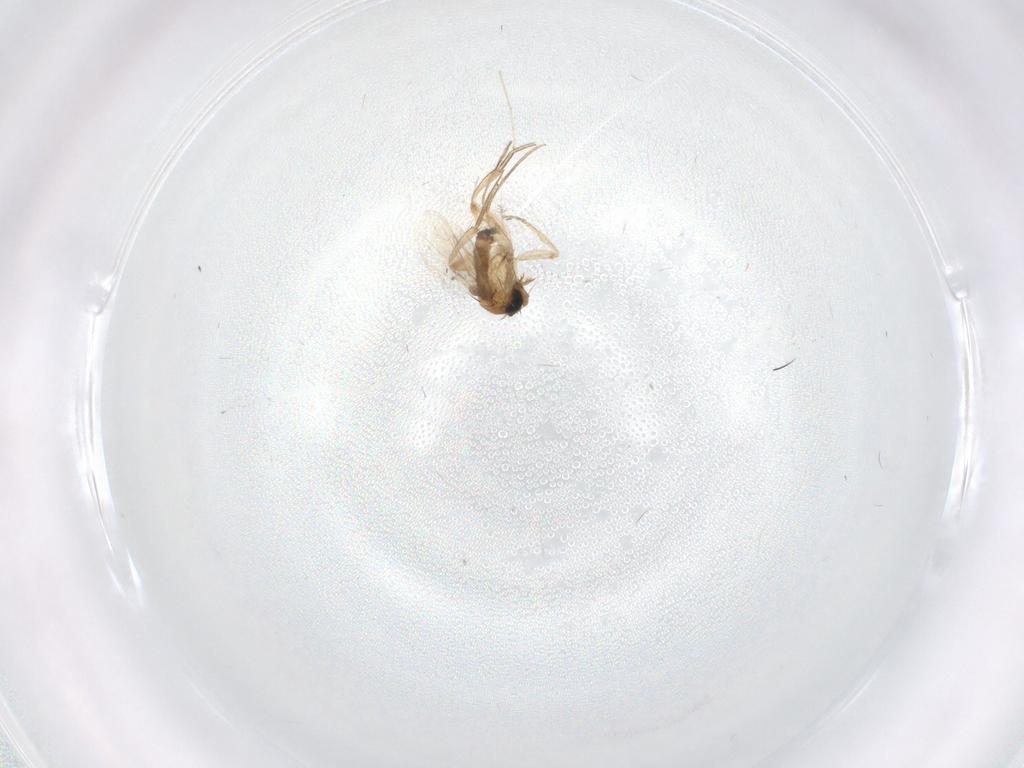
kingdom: Animalia
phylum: Arthropoda
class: Insecta
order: Diptera
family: Cecidomyiidae
